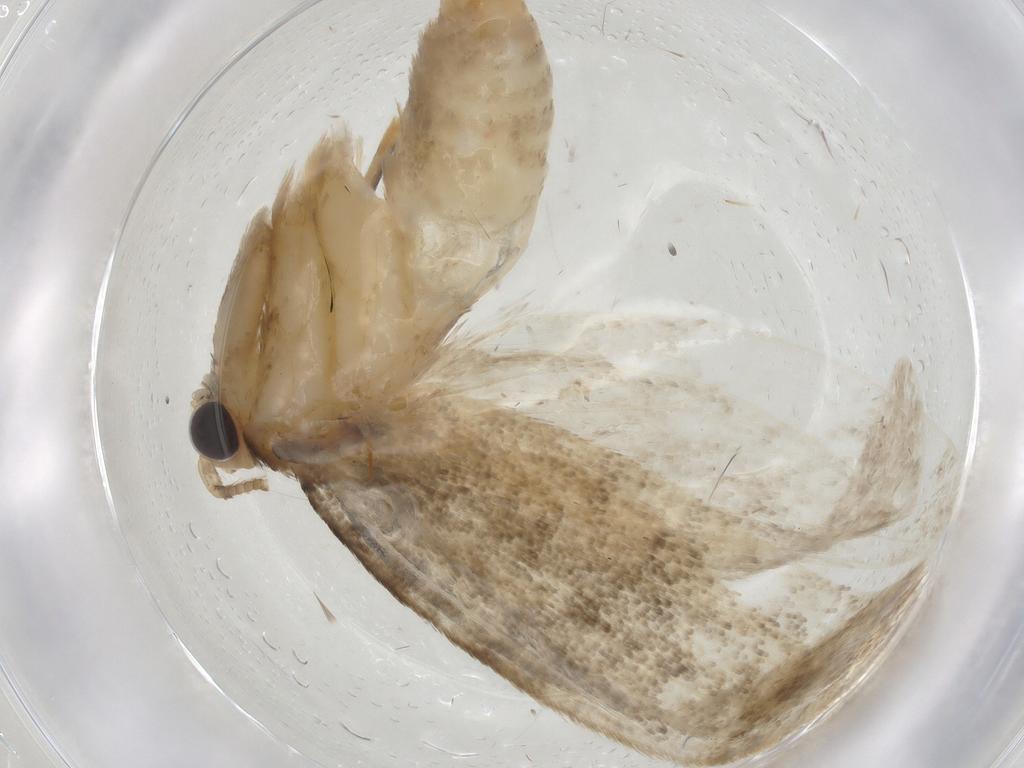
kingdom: Animalia
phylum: Arthropoda
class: Insecta
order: Lepidoptera
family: Tineidae
